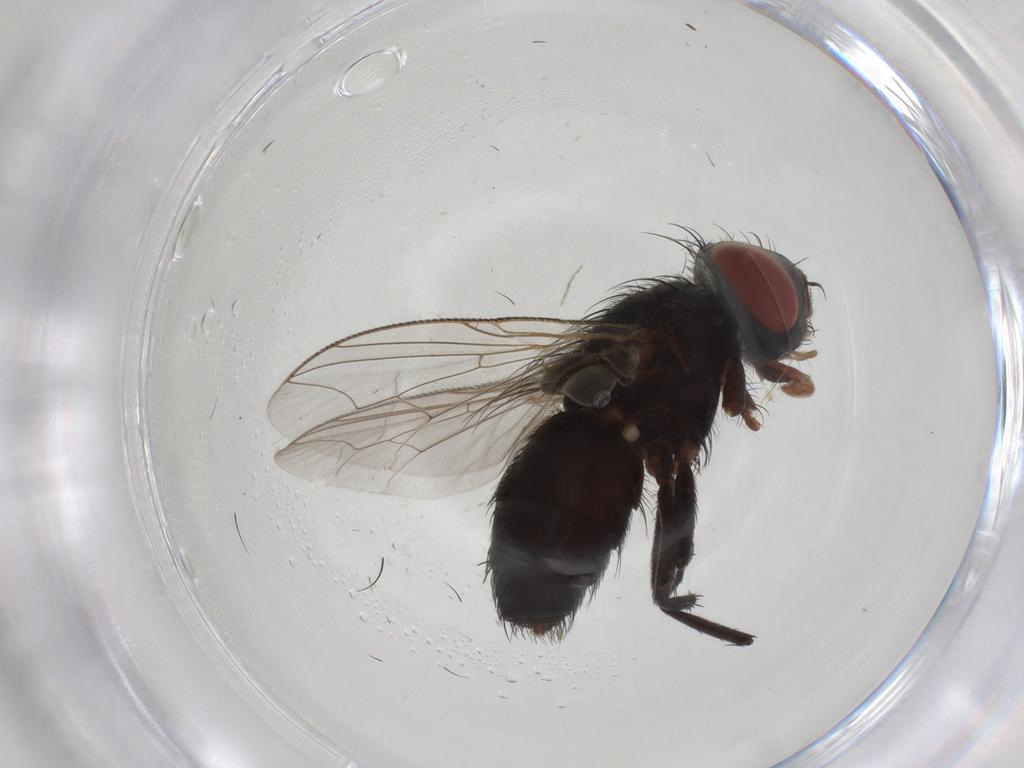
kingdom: Animalia
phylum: Arthropoda
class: Insecta
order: Diptera
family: Sarcophagidae
